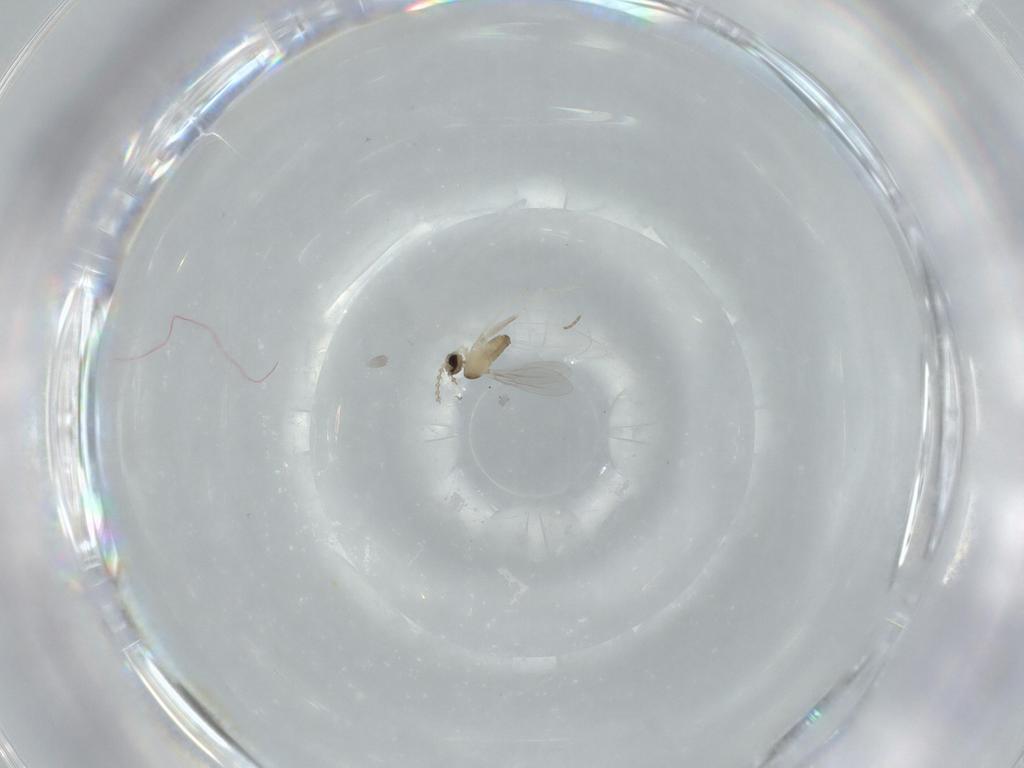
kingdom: Animalia
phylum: Arthropoda
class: Insecta
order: Diptera
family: Cecidomyiidae
